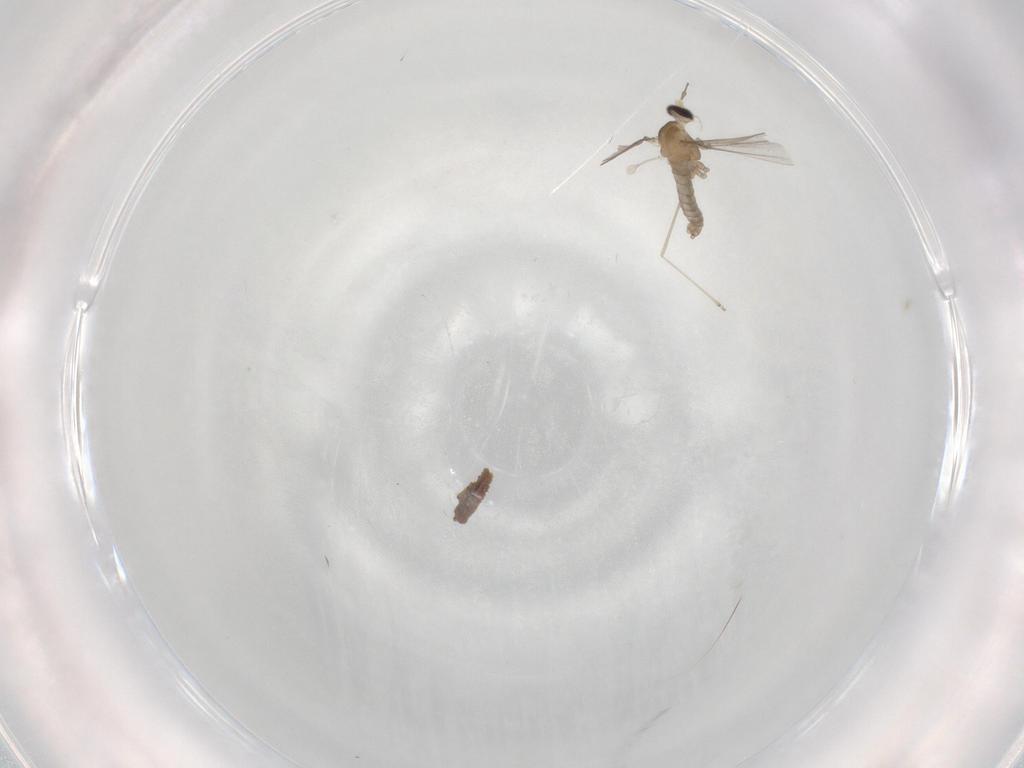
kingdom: Animalia
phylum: Arthropoda
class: Insecta
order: Diptera
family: Cecidomyiidae
